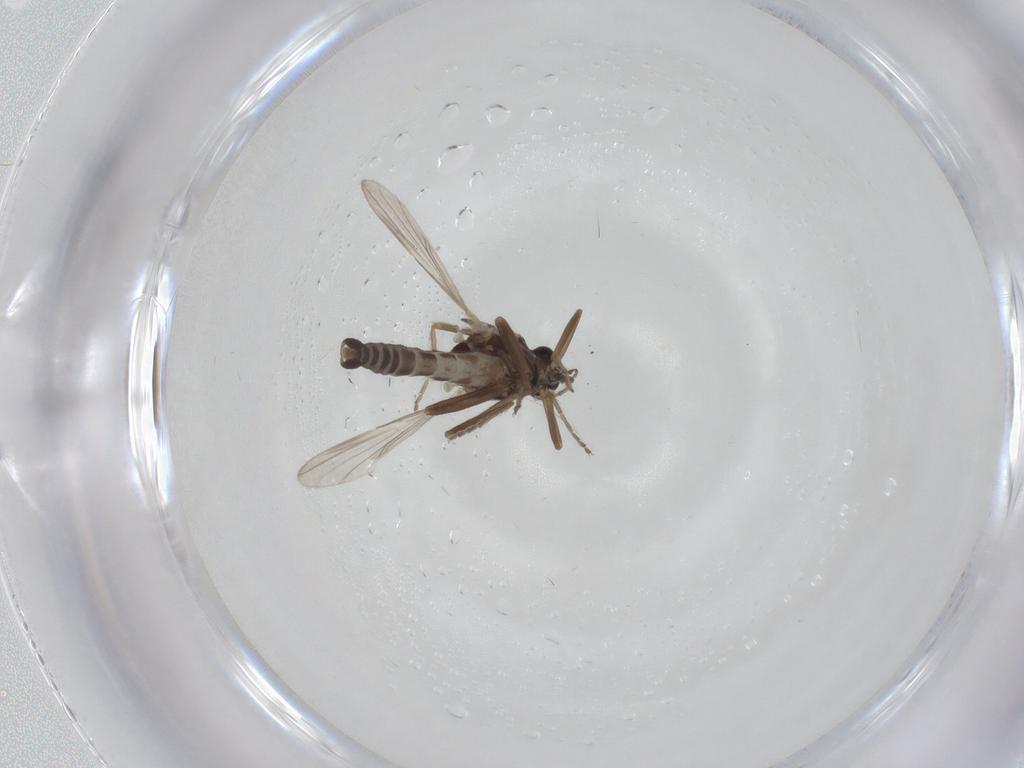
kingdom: Animalia
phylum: Arthropoda
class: Insecta
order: Diptera
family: Ceratopogonidae
